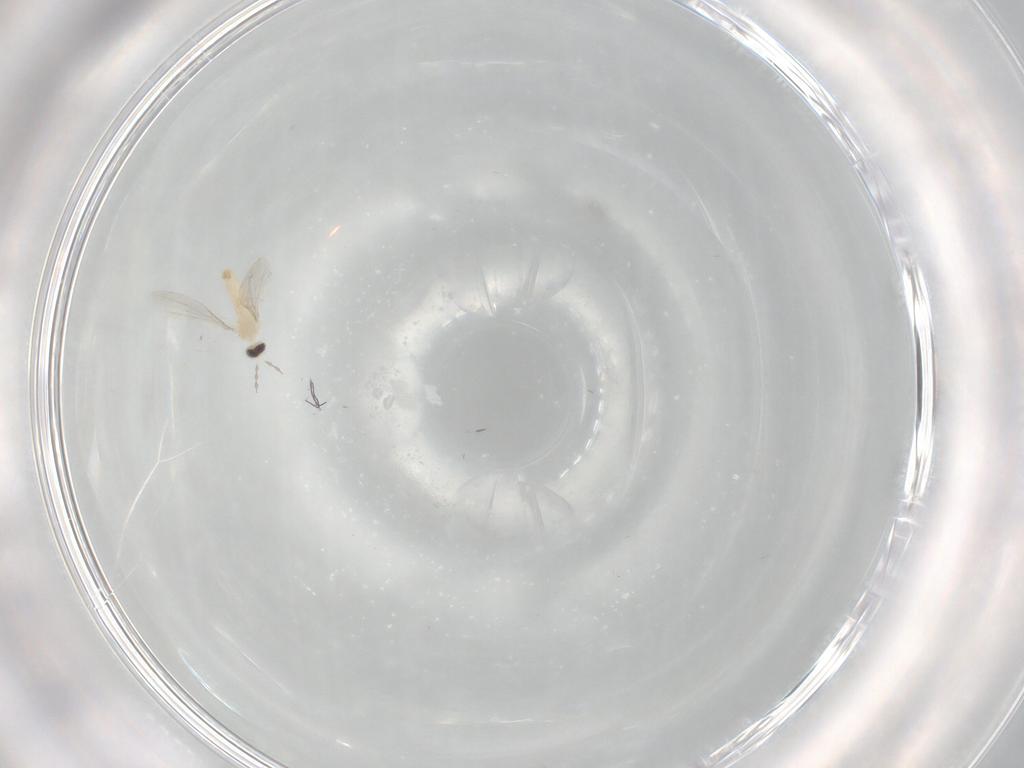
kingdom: Animalia
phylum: Arthropoda
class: Insecta
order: Diptera
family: Cecidomyiidae
